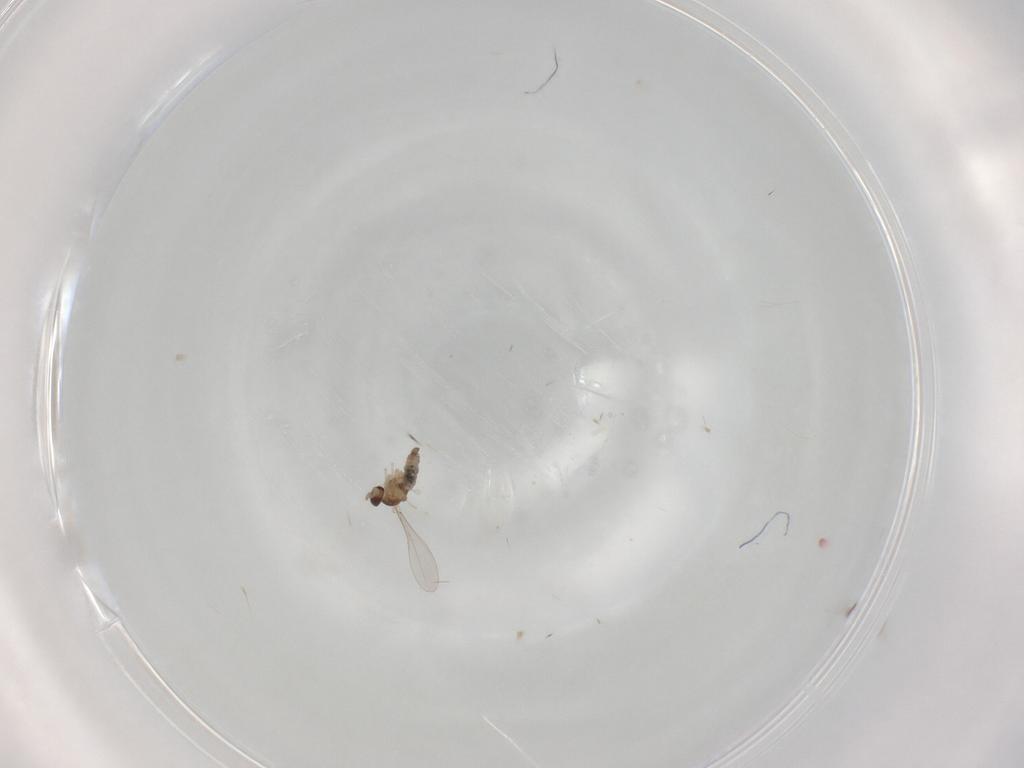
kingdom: Animalia
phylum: Arthropoda
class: Insecta
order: Diptera
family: Cecidomyiidae
